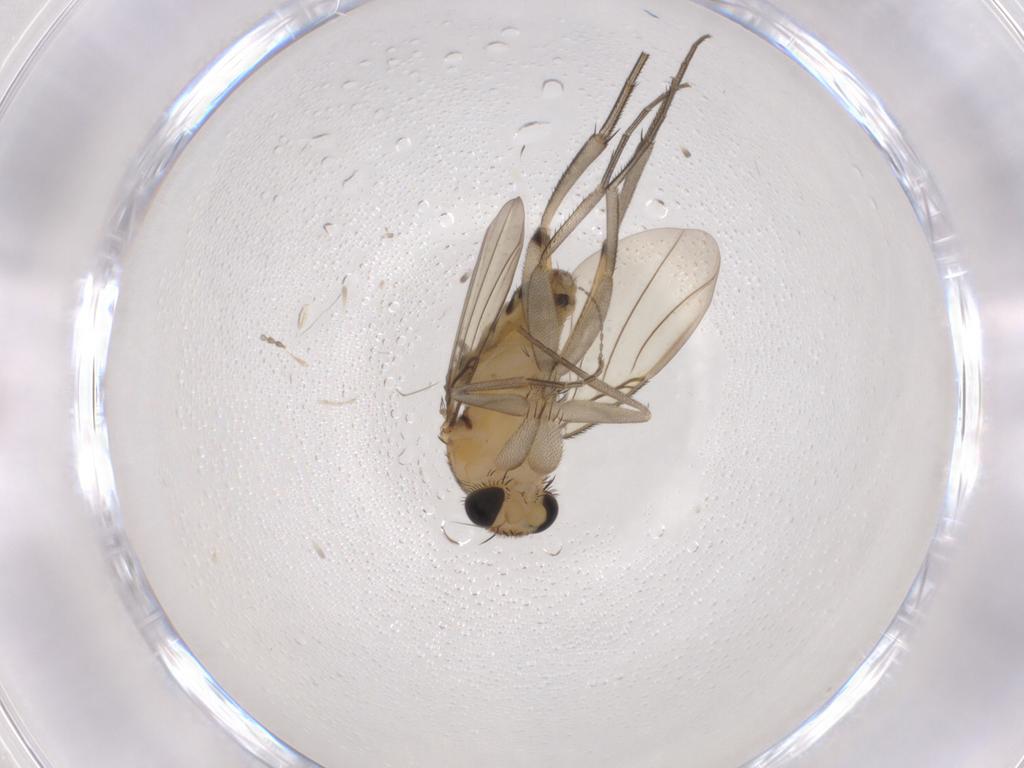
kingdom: Animalia
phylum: Arthropoda
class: Insecta
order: Diptera
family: Phoridae
